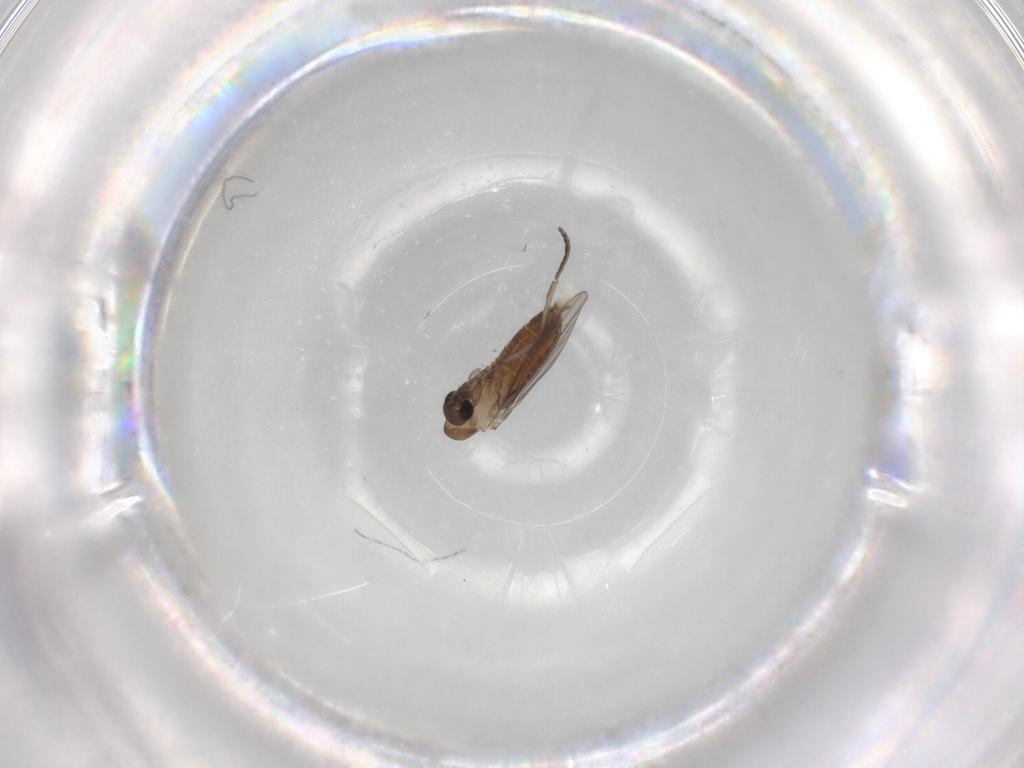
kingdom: Animalia
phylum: Arthropoda
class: Insecta
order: Diptera
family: Psychodidae
